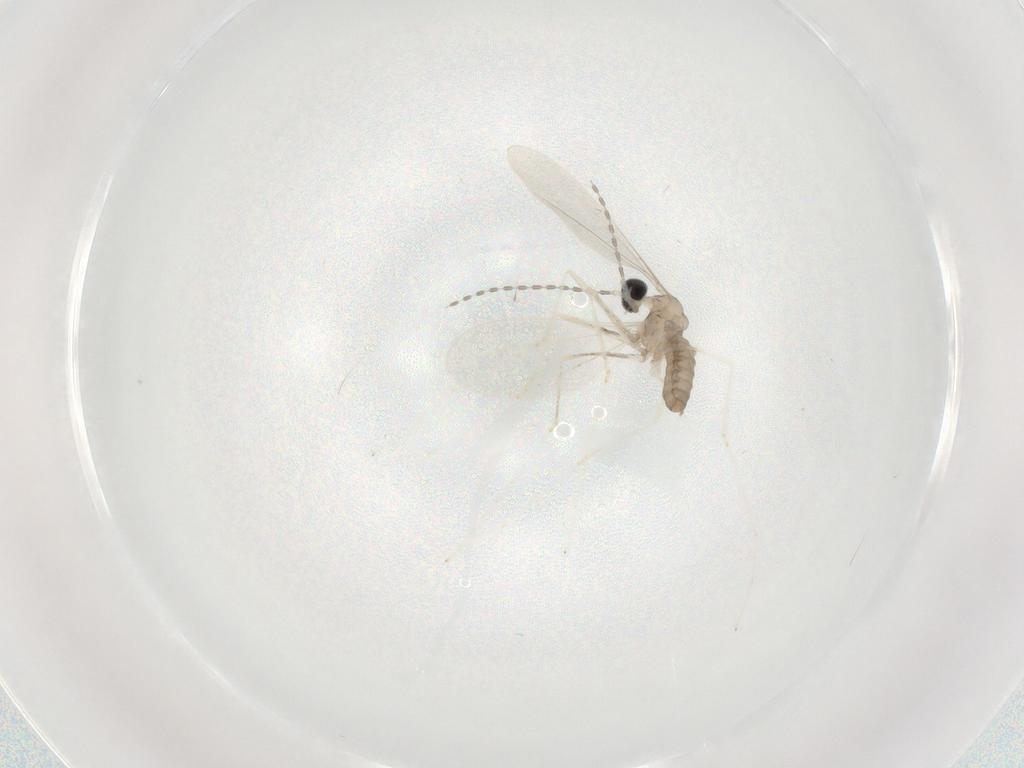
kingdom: Animalia
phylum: Arthropoda
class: Insecta
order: Diptera
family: Cecidomyiidae
